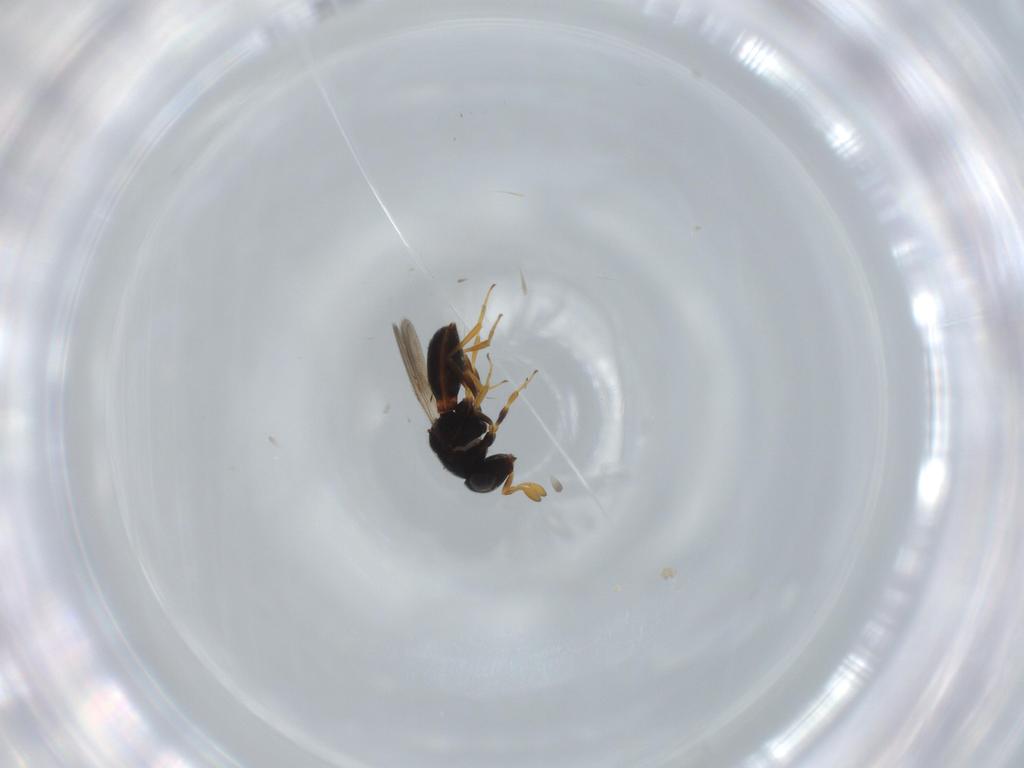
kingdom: Animalia
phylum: Arthropoda
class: Insecta
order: Hymenoptera
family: Scelionidae
